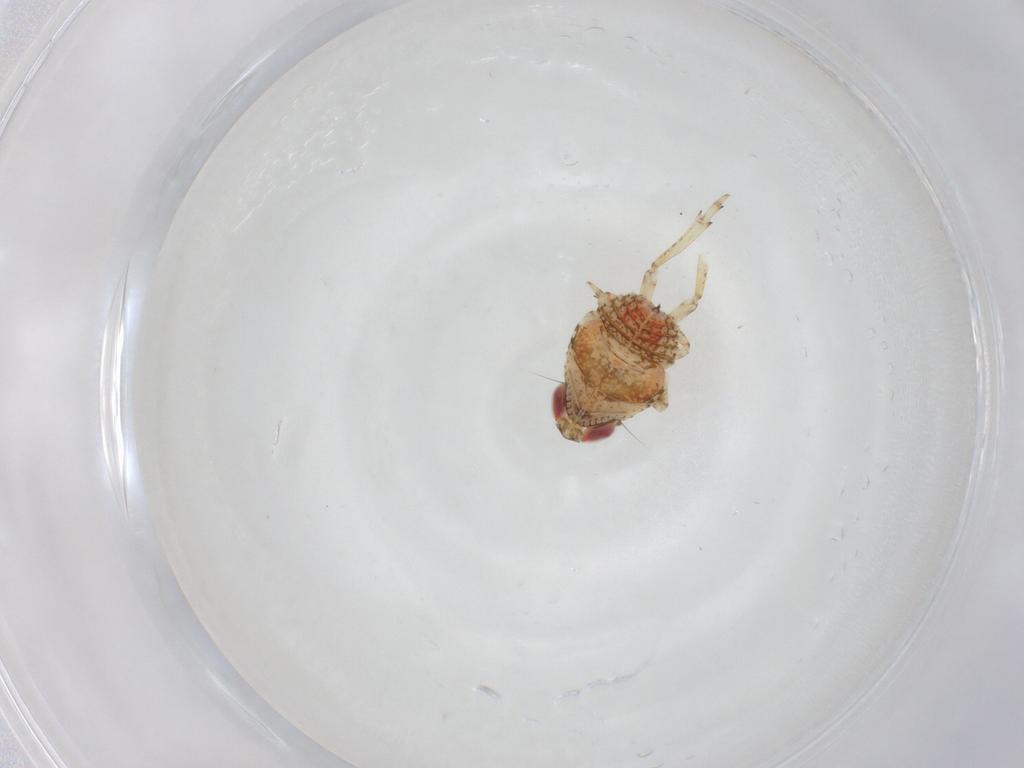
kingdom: Animalia
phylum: Arthropoda
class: Insecta
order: Hemiptera
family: Issidae
